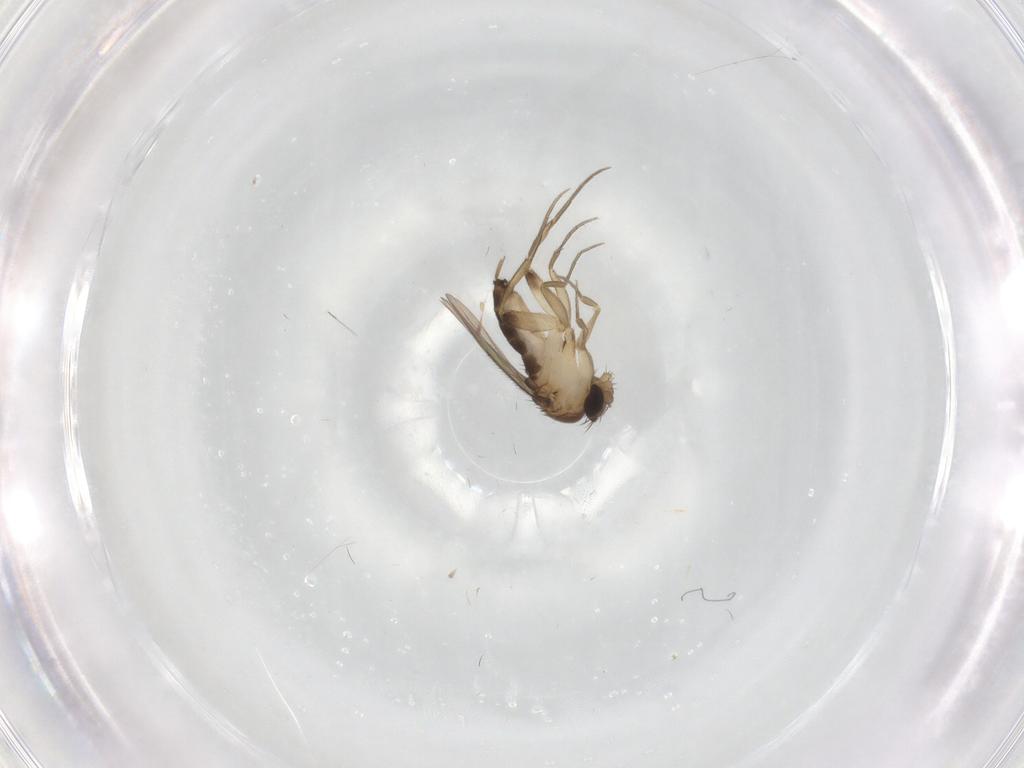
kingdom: Animalia
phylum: Arthropoda
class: Insecta
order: Diptera
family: Phoridae
